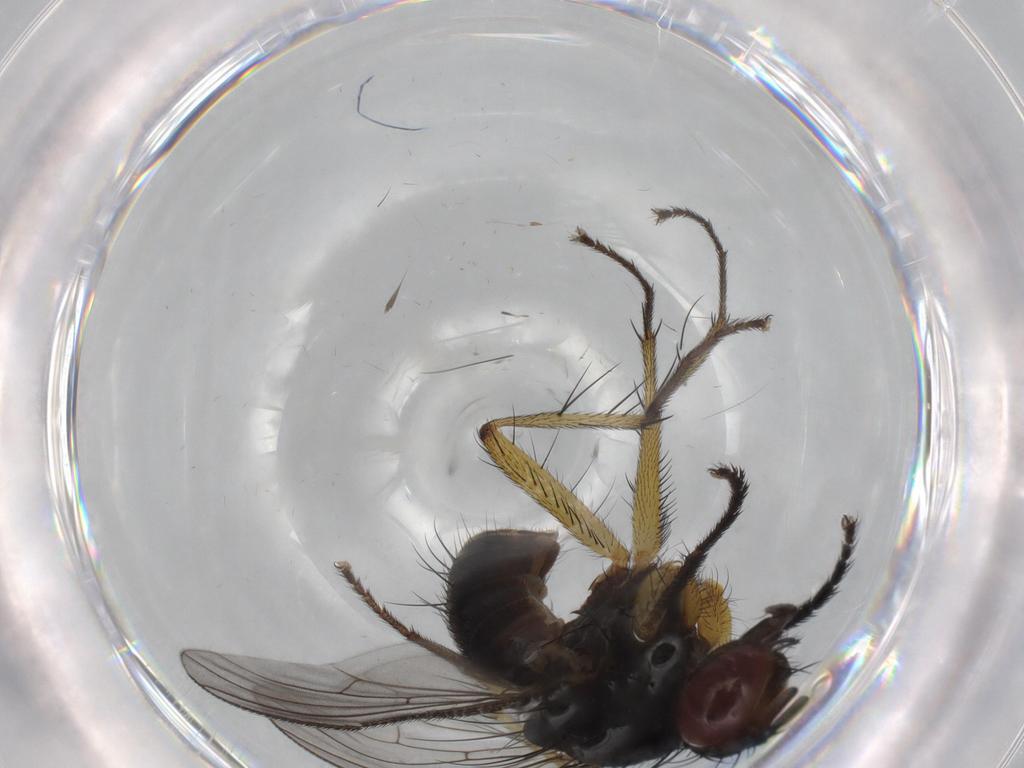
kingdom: Animalia
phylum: Arthropoda
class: Insecta
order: Diptera
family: Muscidae
